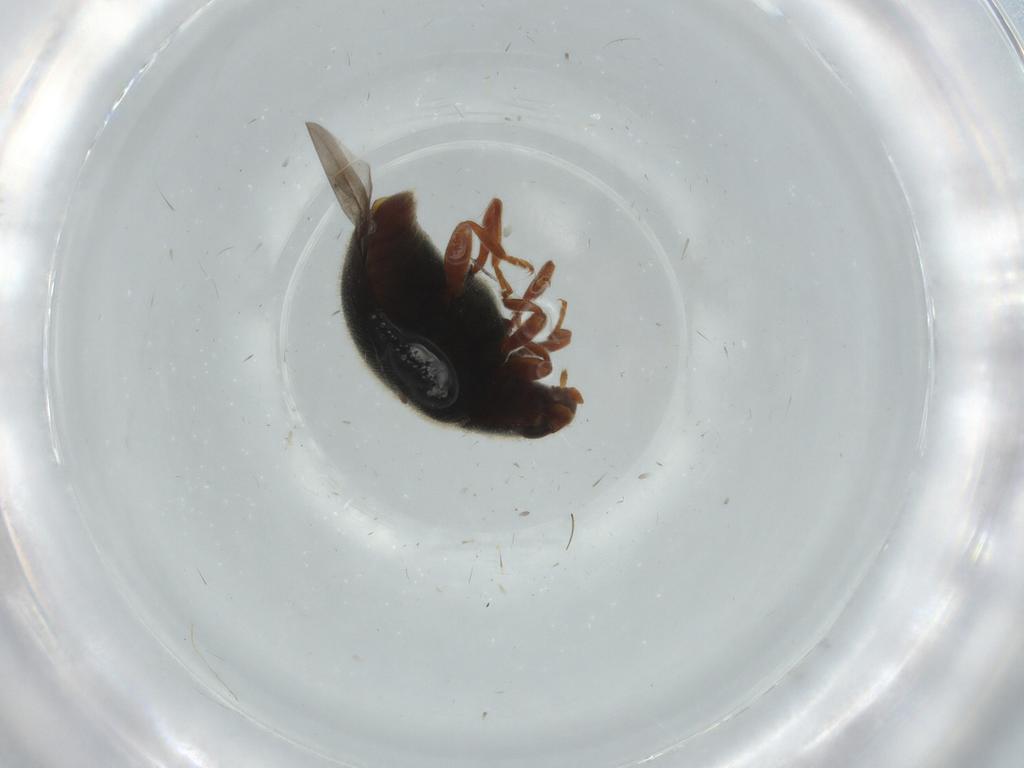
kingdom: Animalia
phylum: Arthropoda
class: Insecta
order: Coleoptera
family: Coccinellidae
